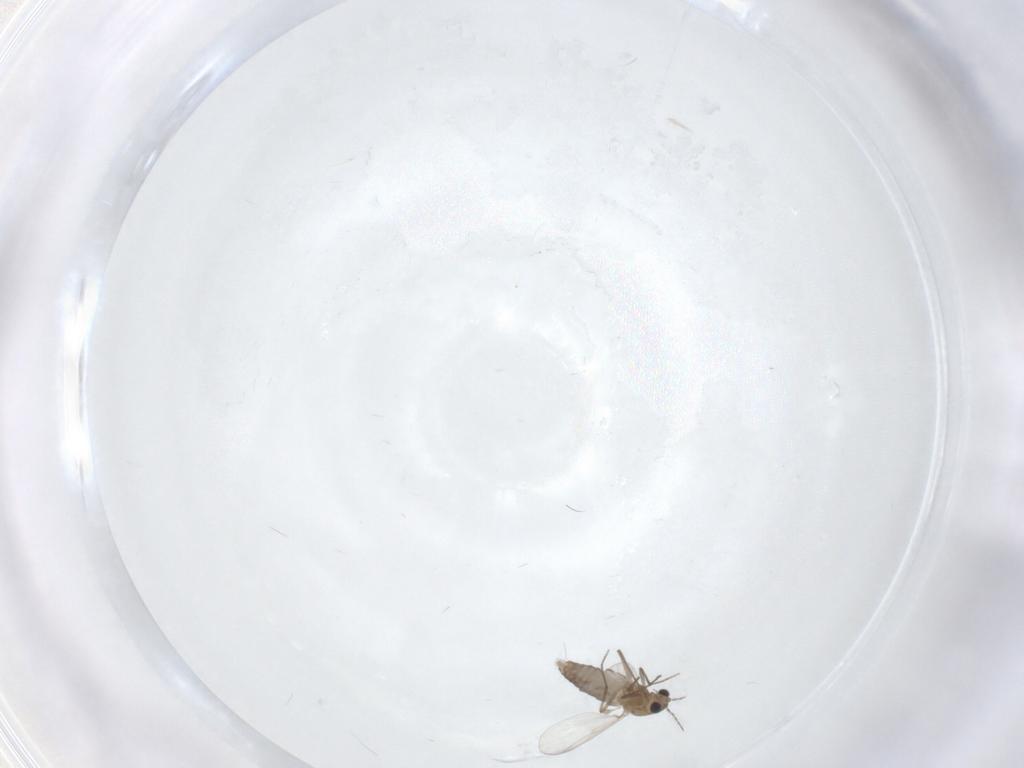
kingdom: Animalia
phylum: Arthropoda
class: Insecta
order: Diptera
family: Chironomidae
